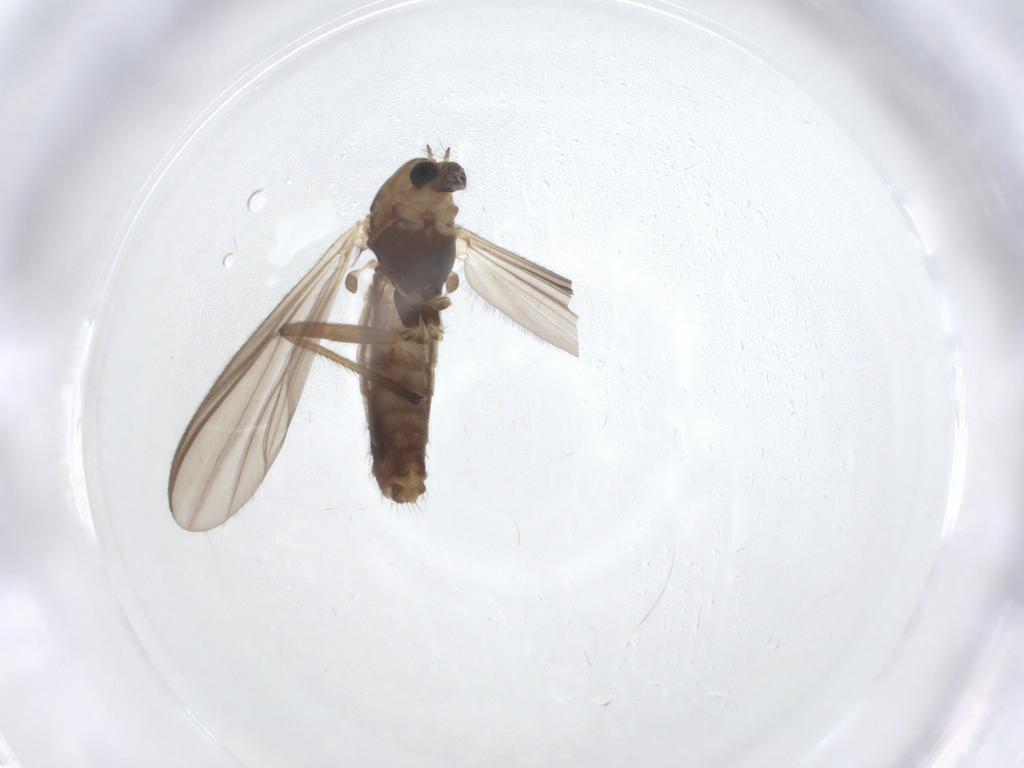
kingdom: Animalia
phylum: Arthropoda
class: Insecta
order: Diptera
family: Chironomidae
